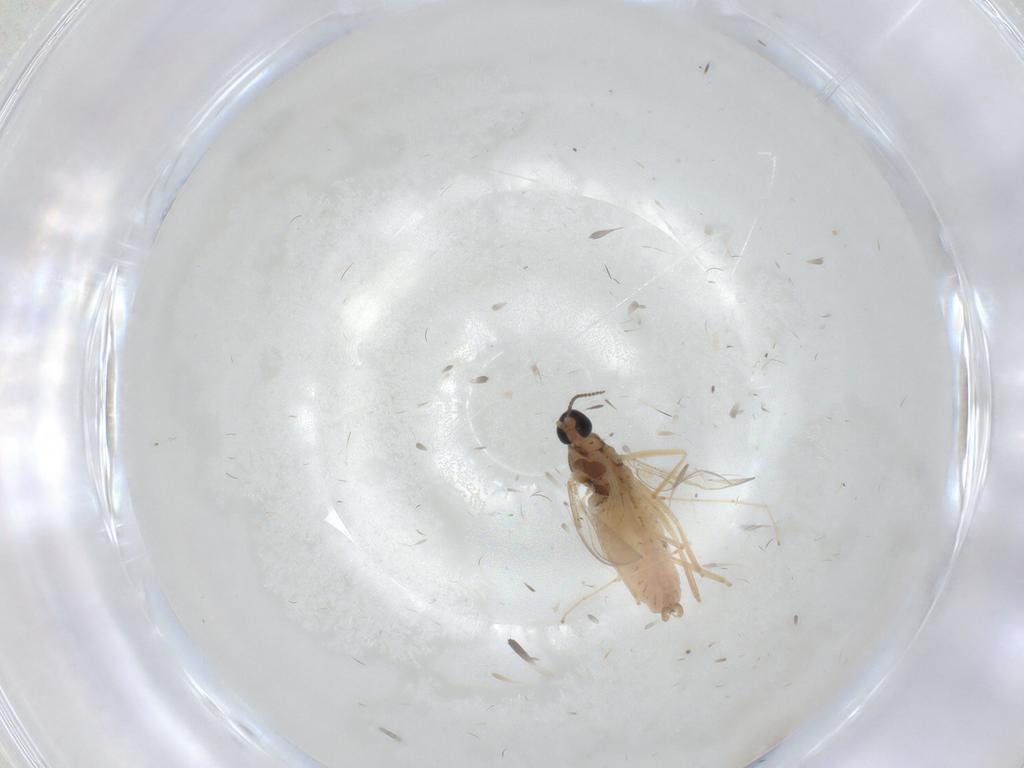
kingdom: Animalia
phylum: Arthropoda
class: Insecta
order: Diptera
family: Cecidomyiidae
